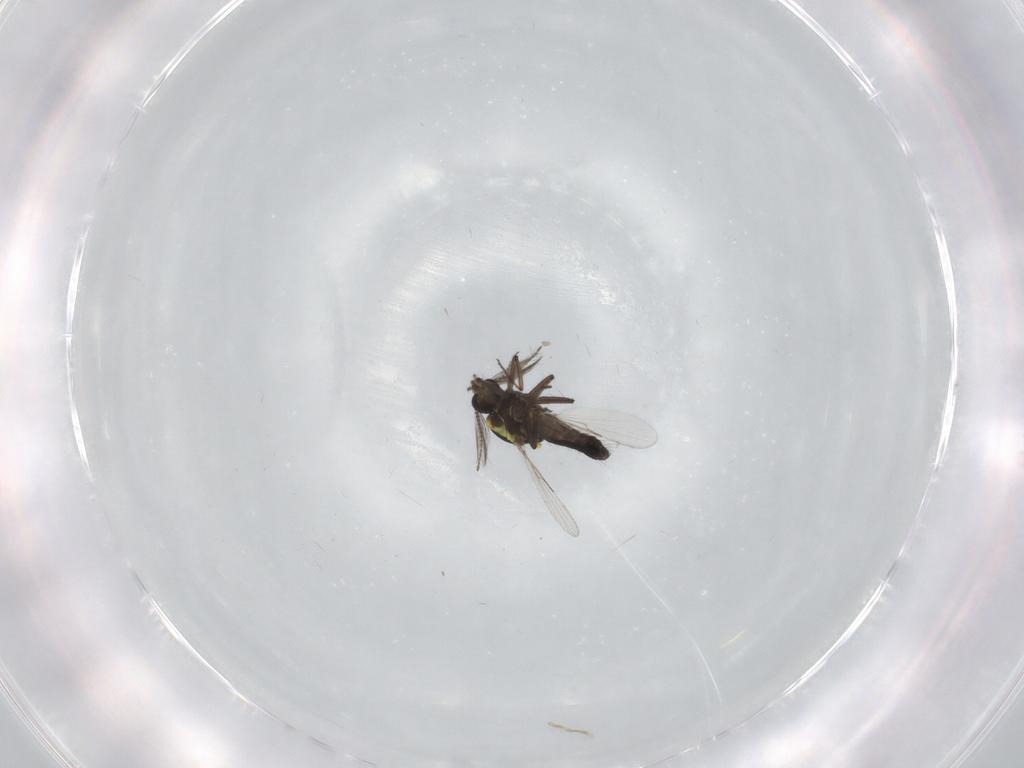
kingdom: Animalia
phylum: Arthropoda
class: Insecta
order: Diptera
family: Ceratopogonidae
